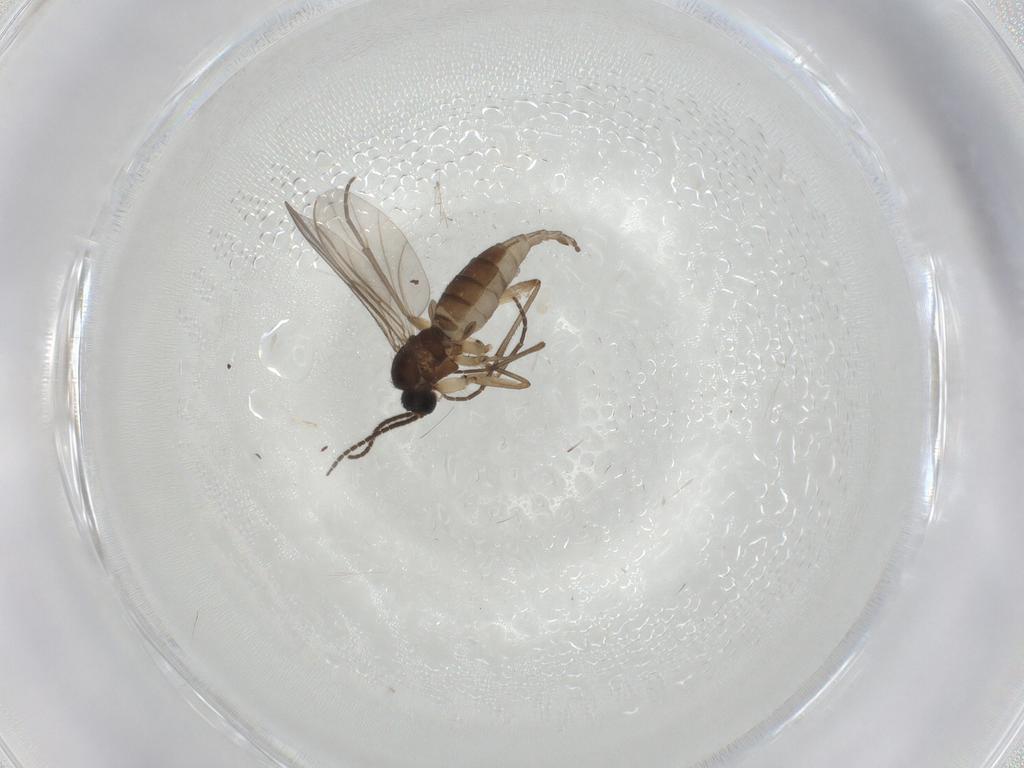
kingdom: Animalia
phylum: Arthropoda
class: Insecta
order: Diptera
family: Sciaridae
